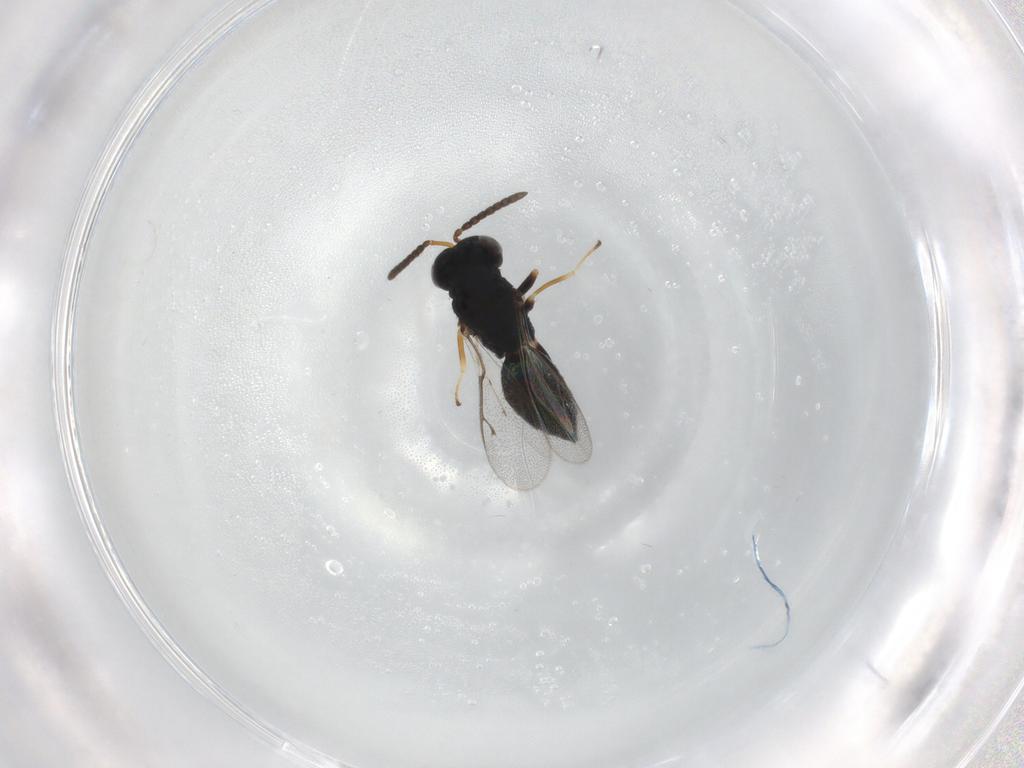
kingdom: Animalia
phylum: Arthropoda
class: Insecta
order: Hymenoptera
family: Pteromalidae
